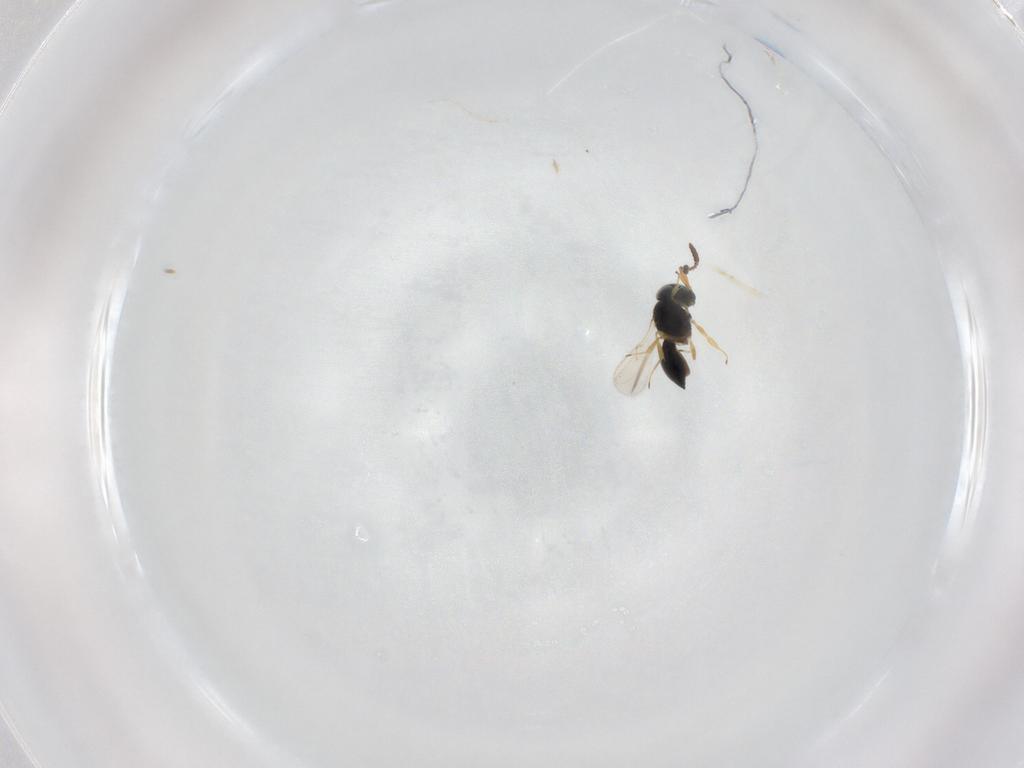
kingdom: Animalia
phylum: Arthropoda
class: Insecta
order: Hymenoptera
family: Scelionidae
